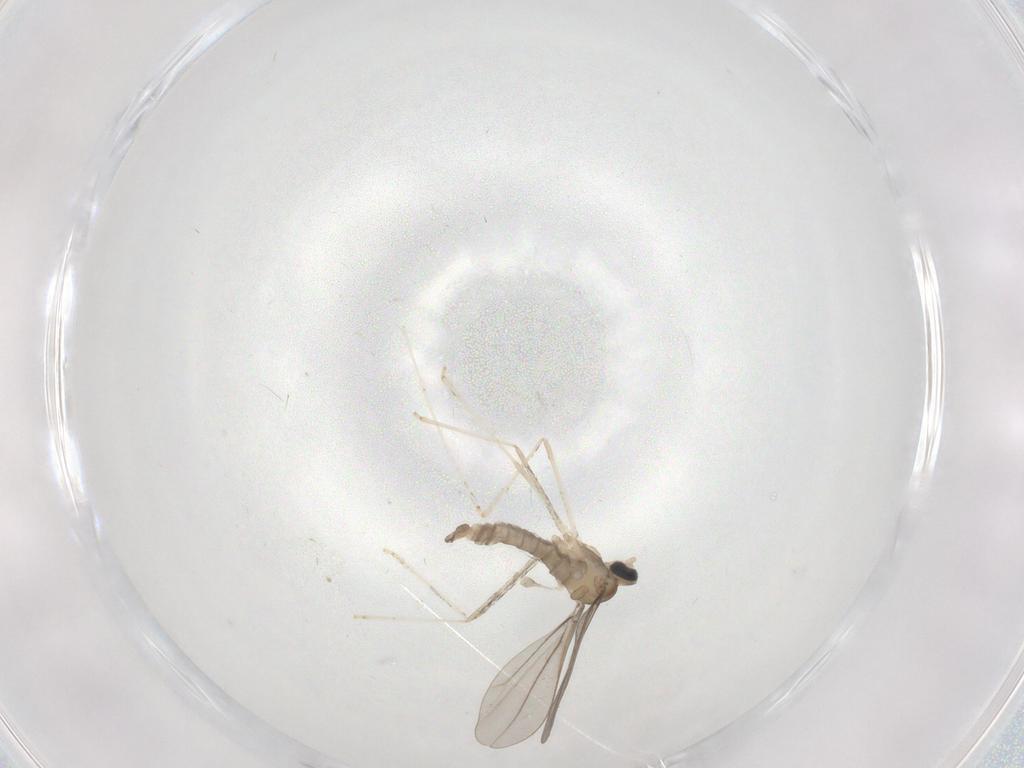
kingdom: Animalia
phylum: Arthropoda
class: Insecta
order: Diptera
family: Cecidomyiidae
